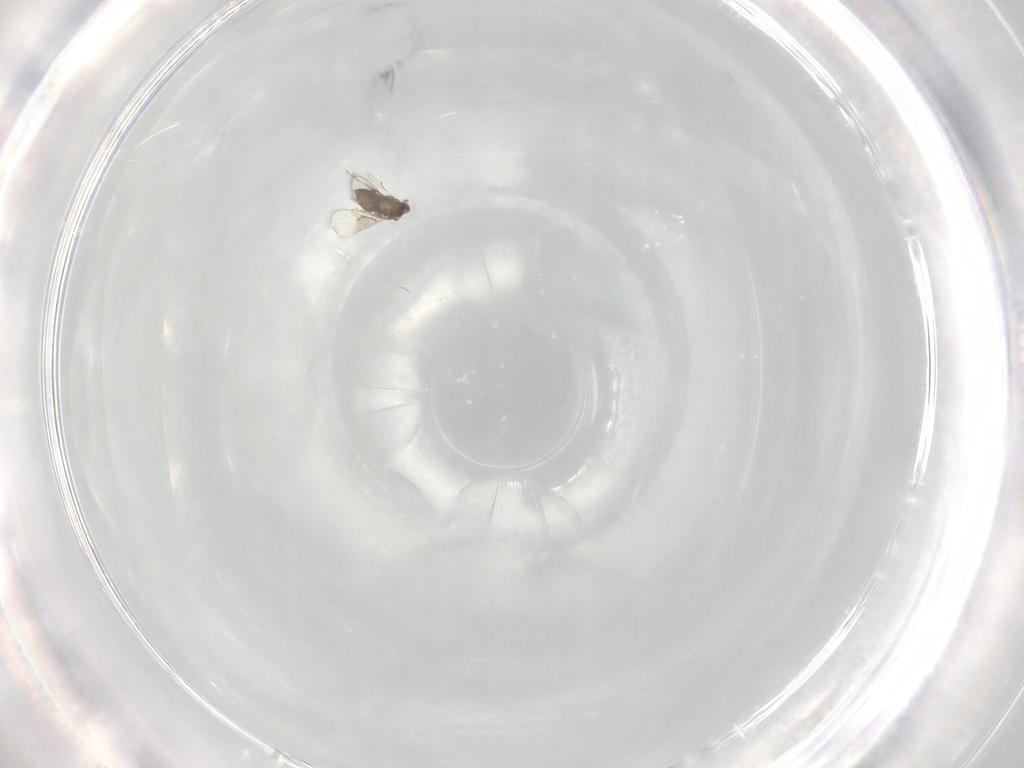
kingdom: Animalia
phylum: Arthropoda
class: Insecta
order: Hymenoptera
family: Trichogrammatidae
